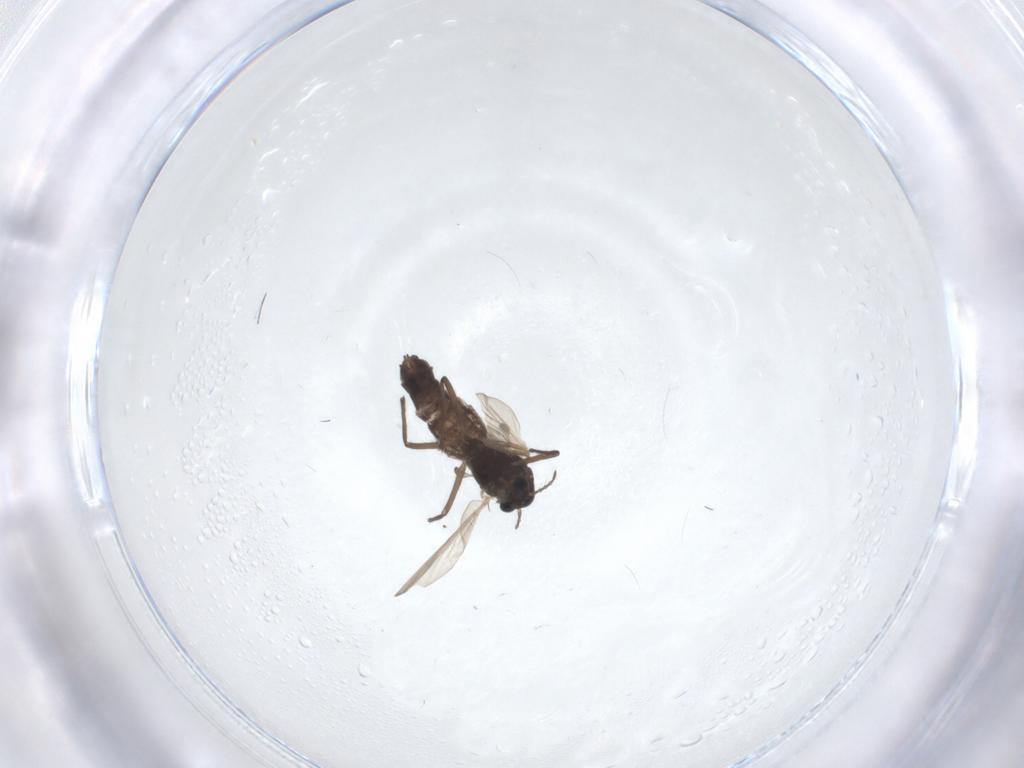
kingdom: Animalia
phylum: Arthropoda
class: Insecta
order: Diptera
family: Chironomidae
